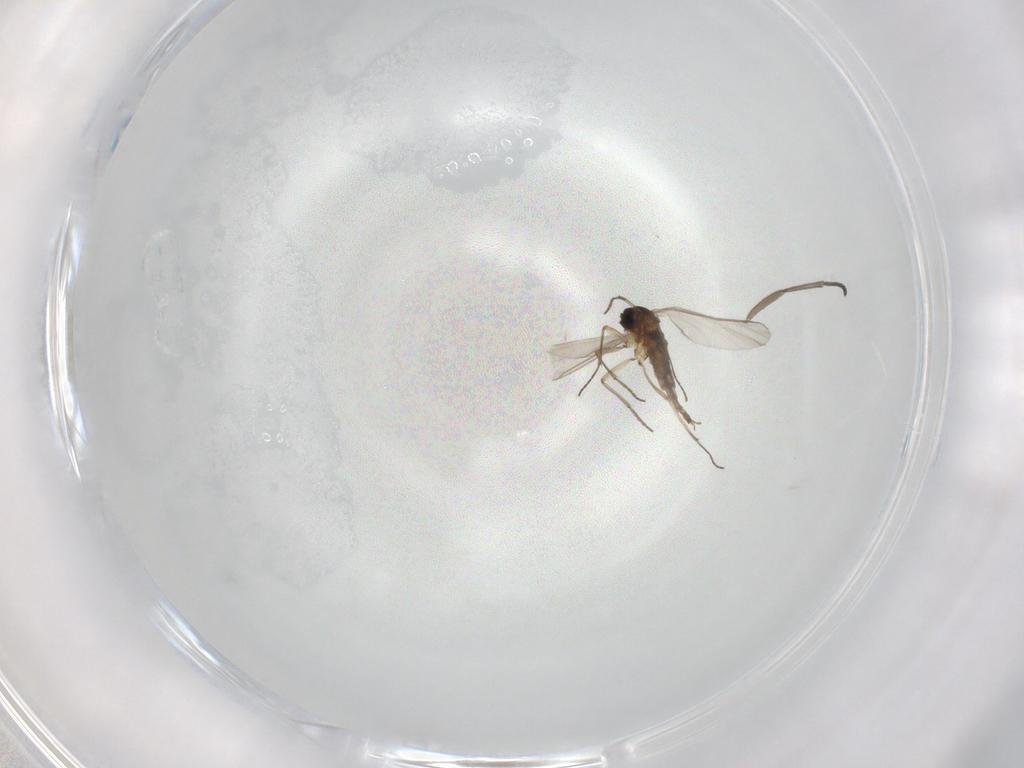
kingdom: Animalia
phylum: Arthropoda
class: Insecta
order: Diptera
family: Sciaridae
